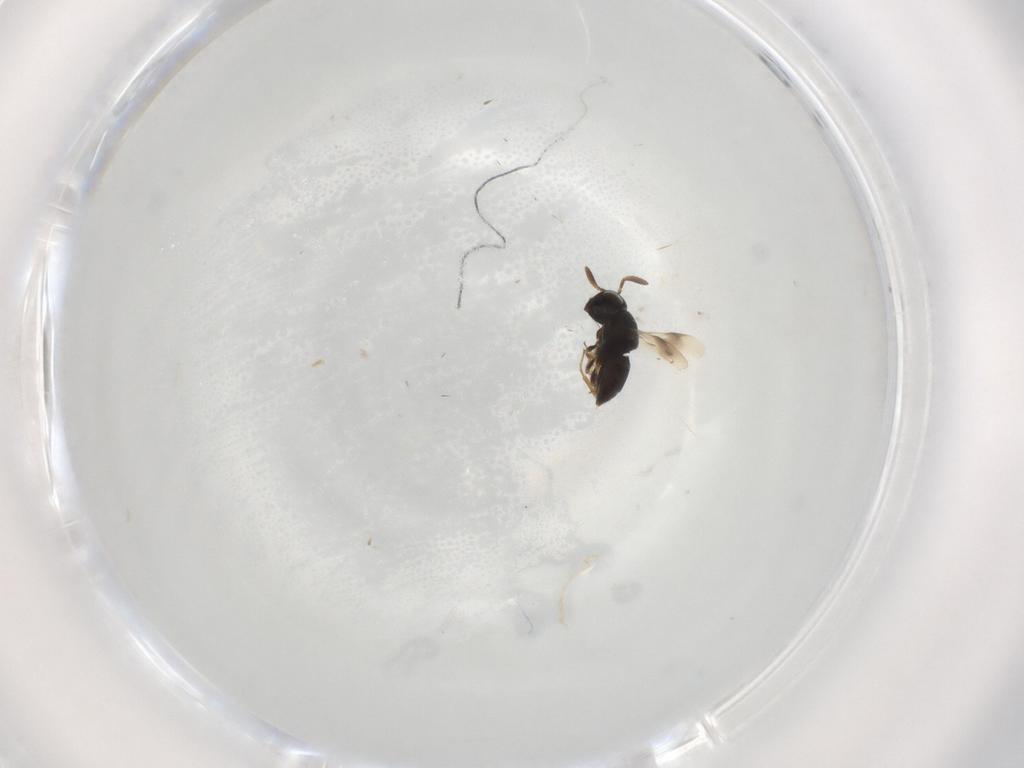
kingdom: Animalia
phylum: Arthropoda
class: Insecta
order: Hymenoptera
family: Scelionidae
